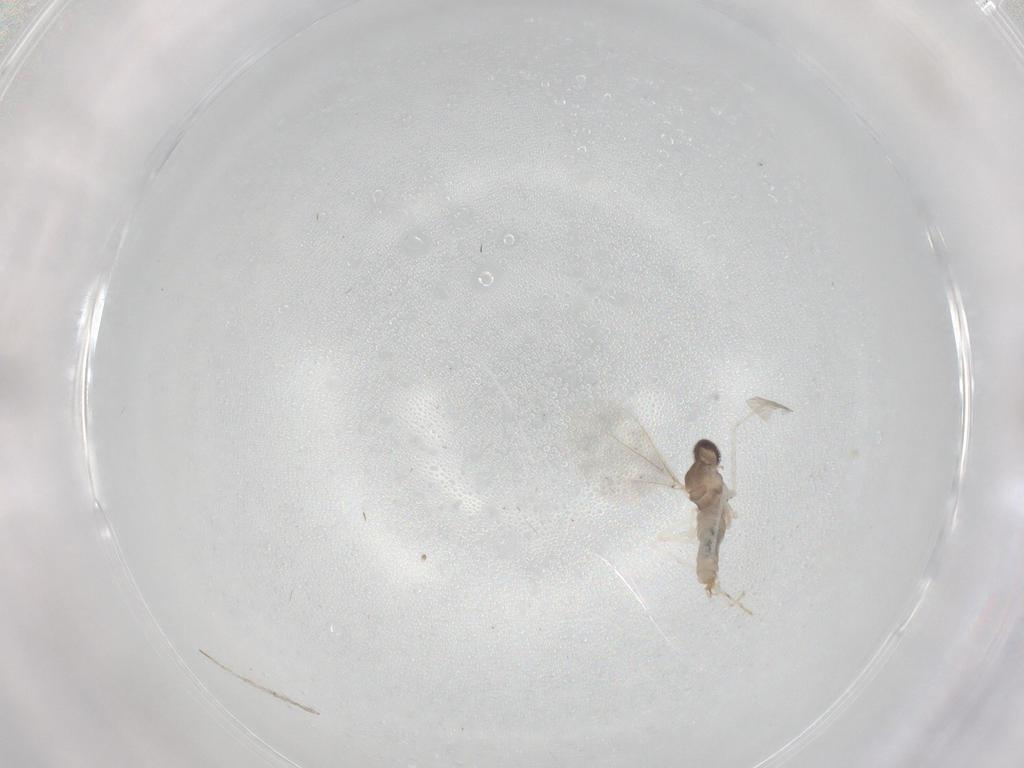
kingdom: Animalia
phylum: Arthropoda
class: Insecta
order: Diptera
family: Chironomidae
